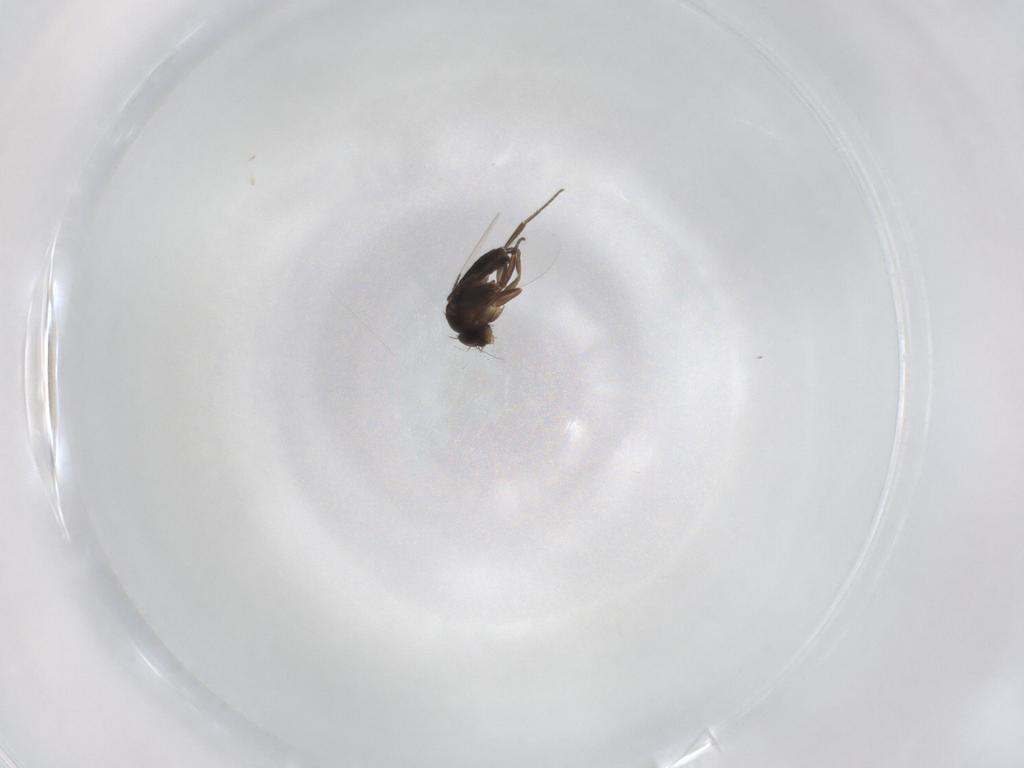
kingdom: Animalia
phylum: Arthropoda
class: Insecta
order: Diptera
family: Phoridae
